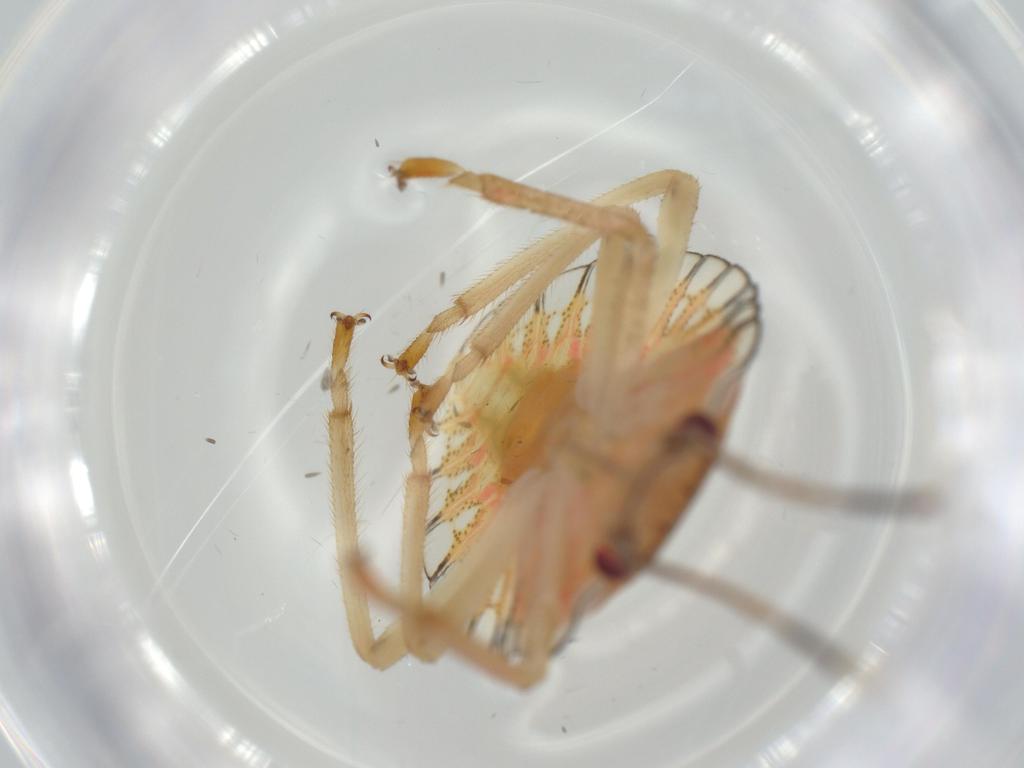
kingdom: Animalia
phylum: Arthropoda
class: Insecta
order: Hemiptera
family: Pentatomidae
